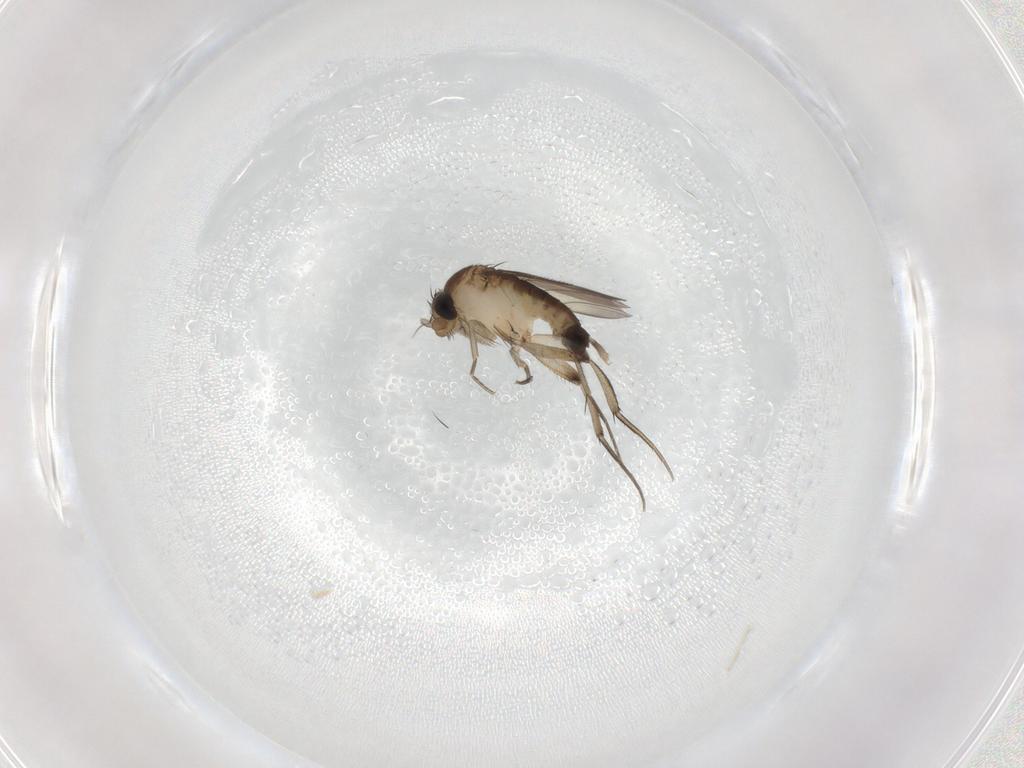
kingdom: Animalia
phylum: Arthropoda
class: Insecta
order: Diptera
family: Phoridae
